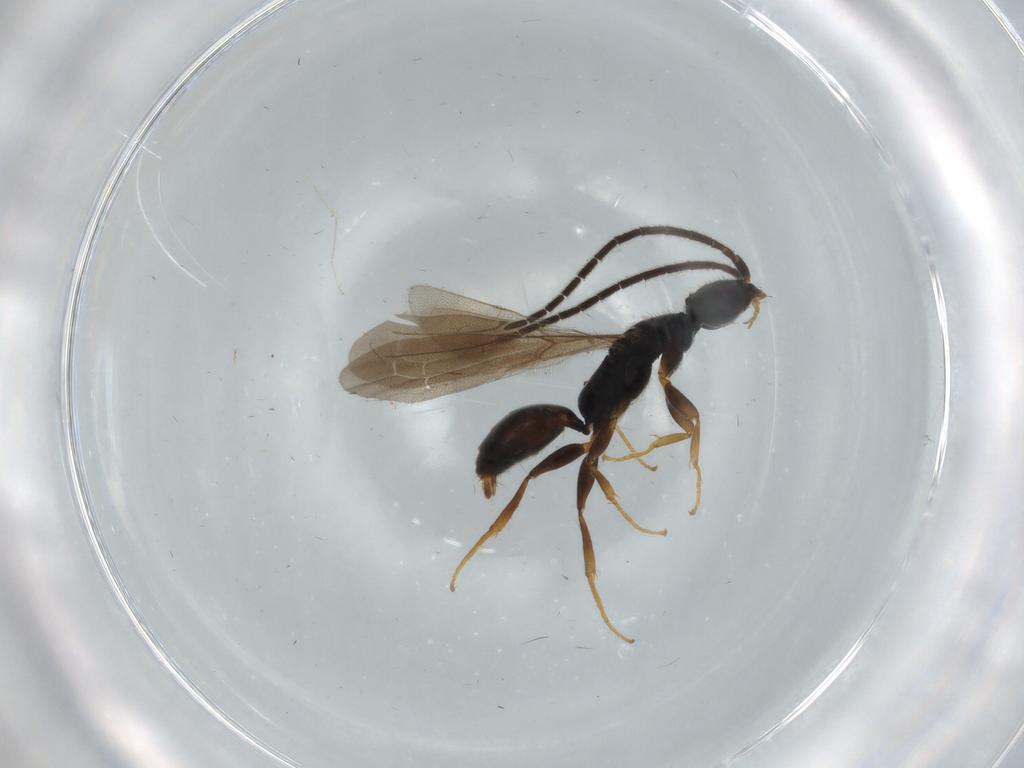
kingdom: Animalia
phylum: Arthropoda
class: Insecta
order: Hymenoptera
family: Bethylidae
